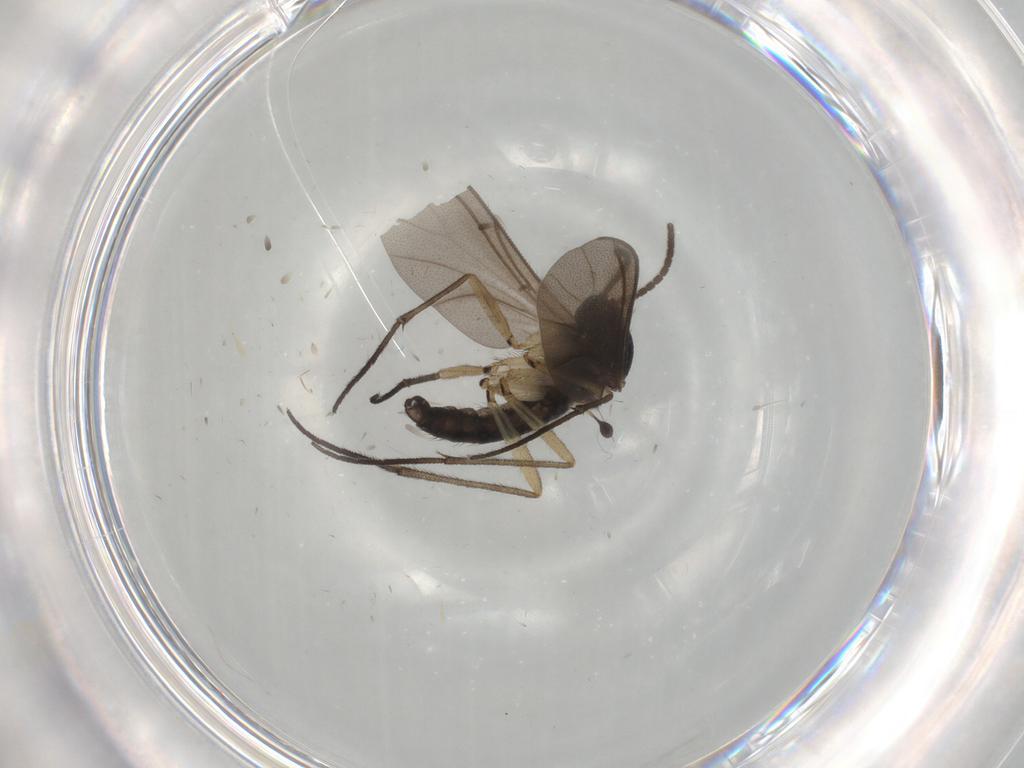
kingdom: Animalia
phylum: Arthropoda
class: Insecta
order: Diptera
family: Sciaridae
